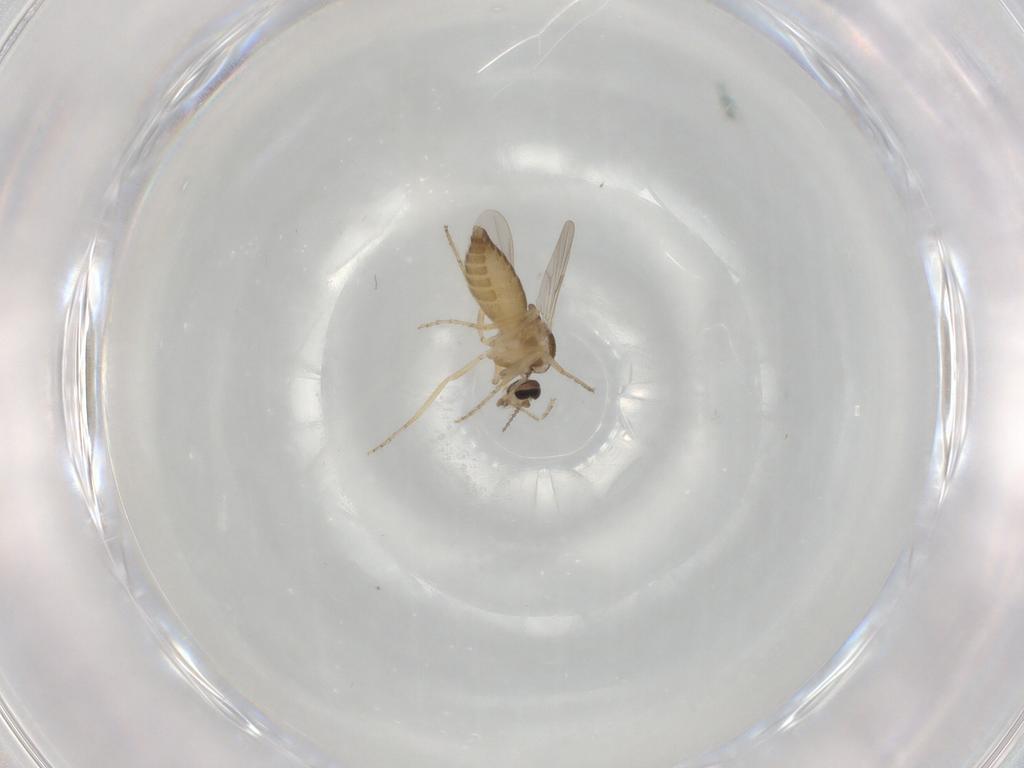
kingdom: Animalia
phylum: Arthropoda
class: Insecta
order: Diptera
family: Ceratopogonidae
